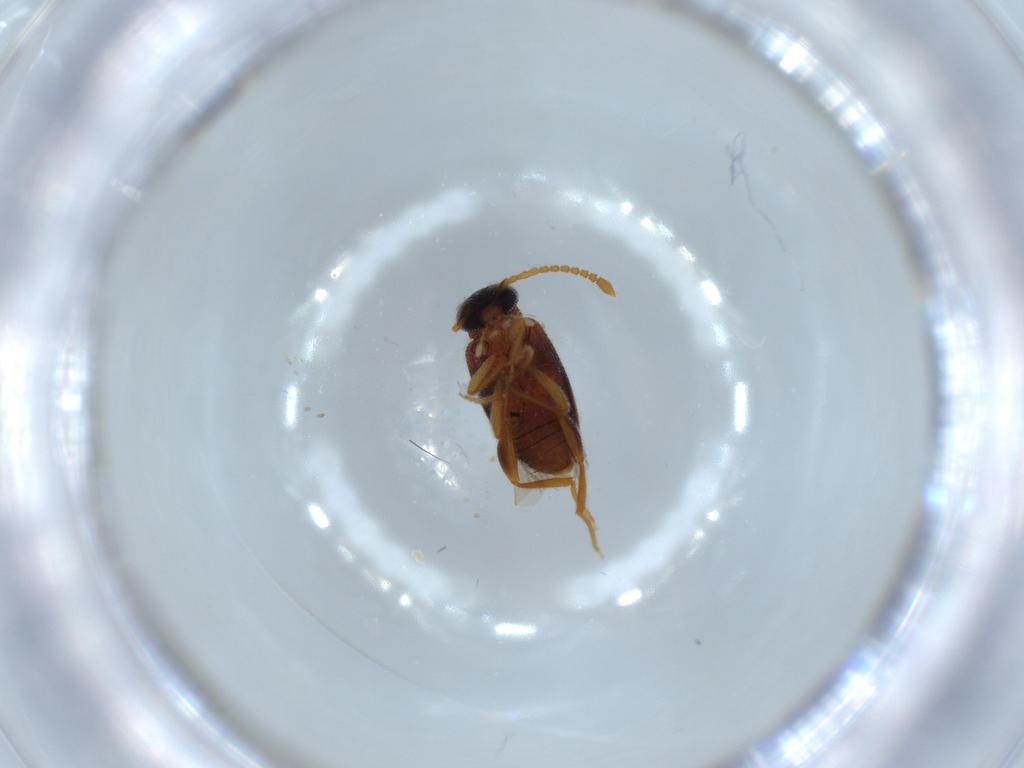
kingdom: Animalia
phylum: Arthropoda
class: Insecta
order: Coleoptera
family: Aderidae
